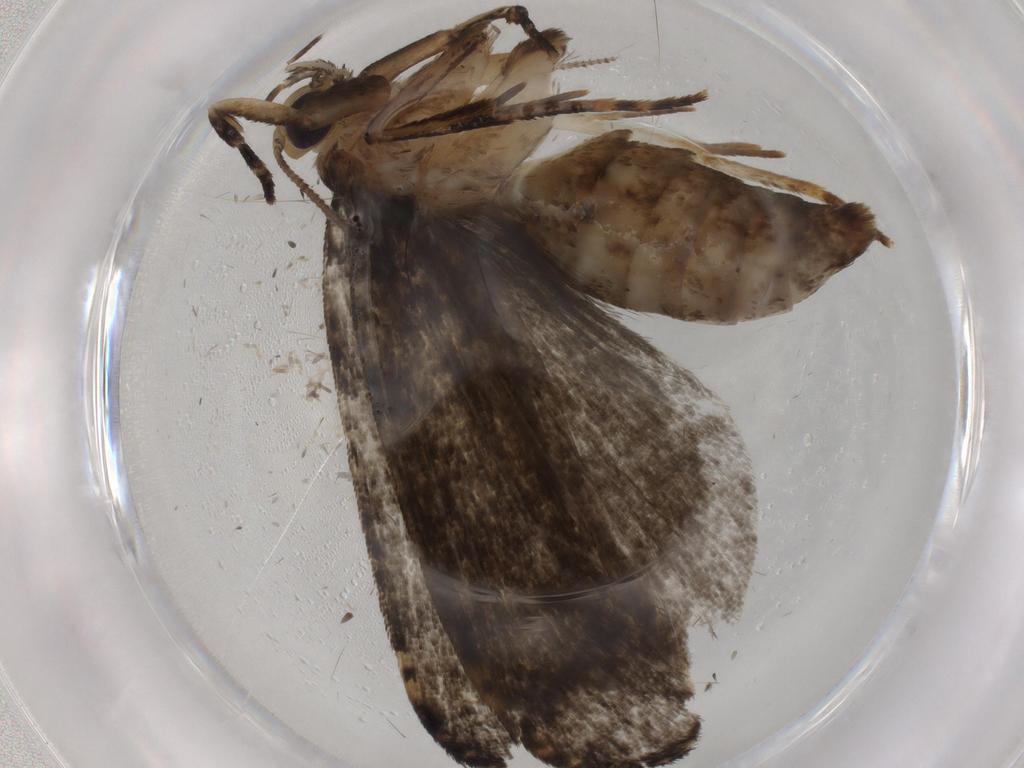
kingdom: Animalia
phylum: Arthropoda
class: Insecta
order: Lepidoptera
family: Tineidae
